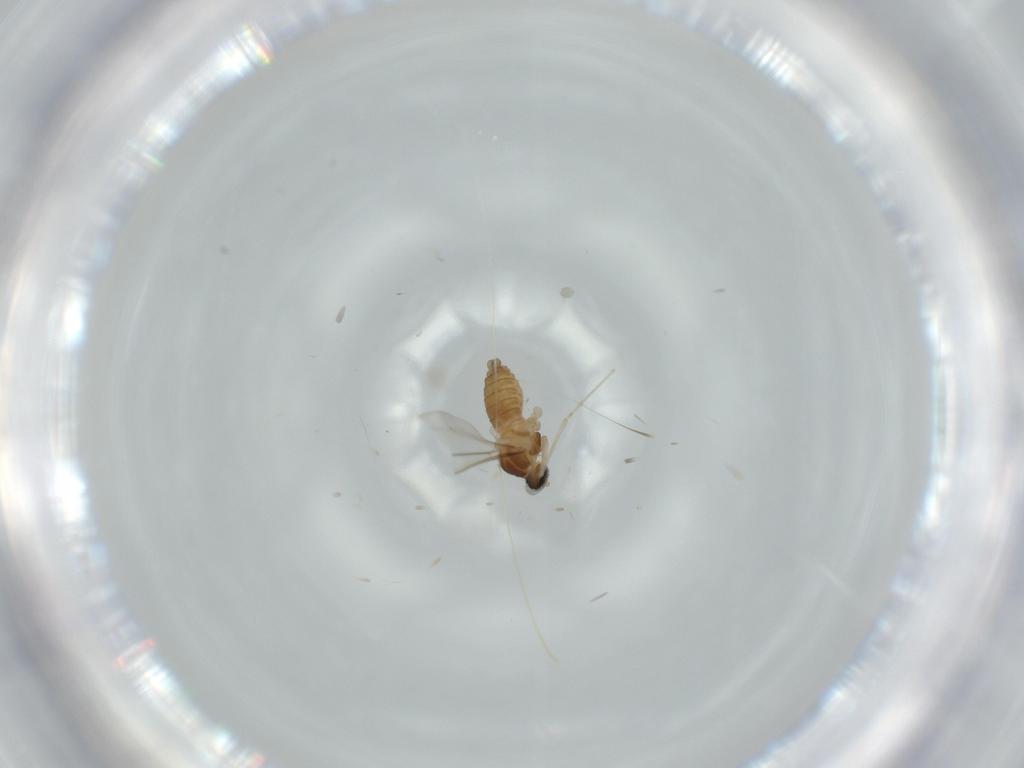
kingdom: Animalia
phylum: Arthropoda
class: Insecta
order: Diptera
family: Cecidomyiidae
